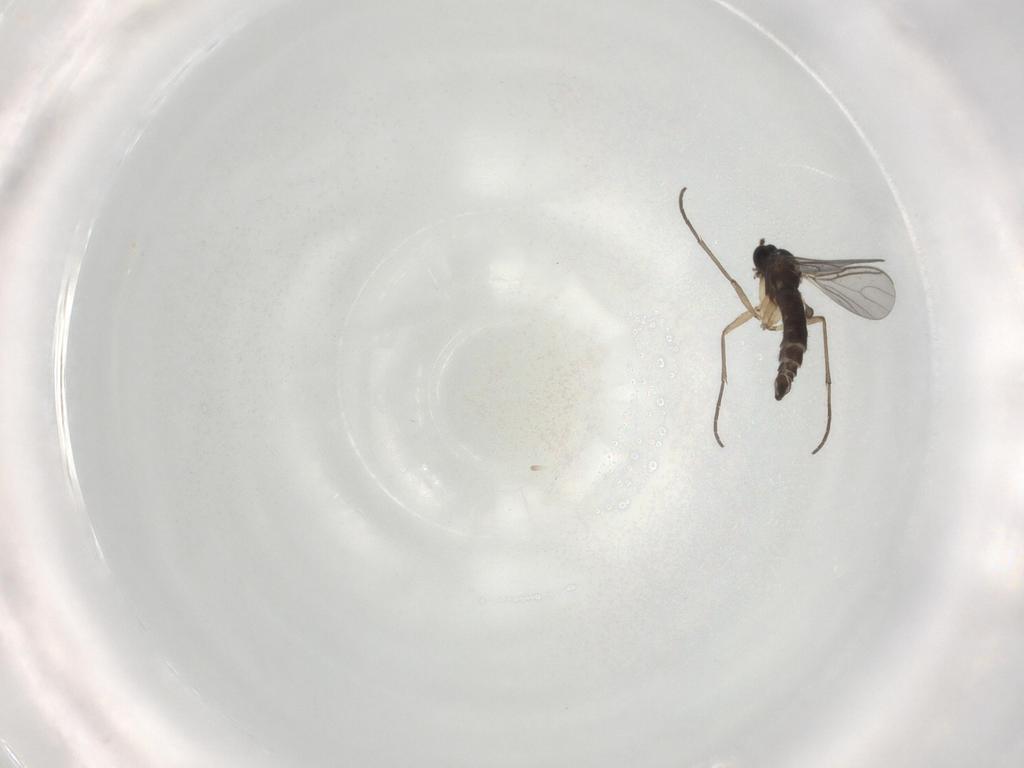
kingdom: Animalia
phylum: Arthropoda
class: Insecta
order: Diptera
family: Sciaridae
